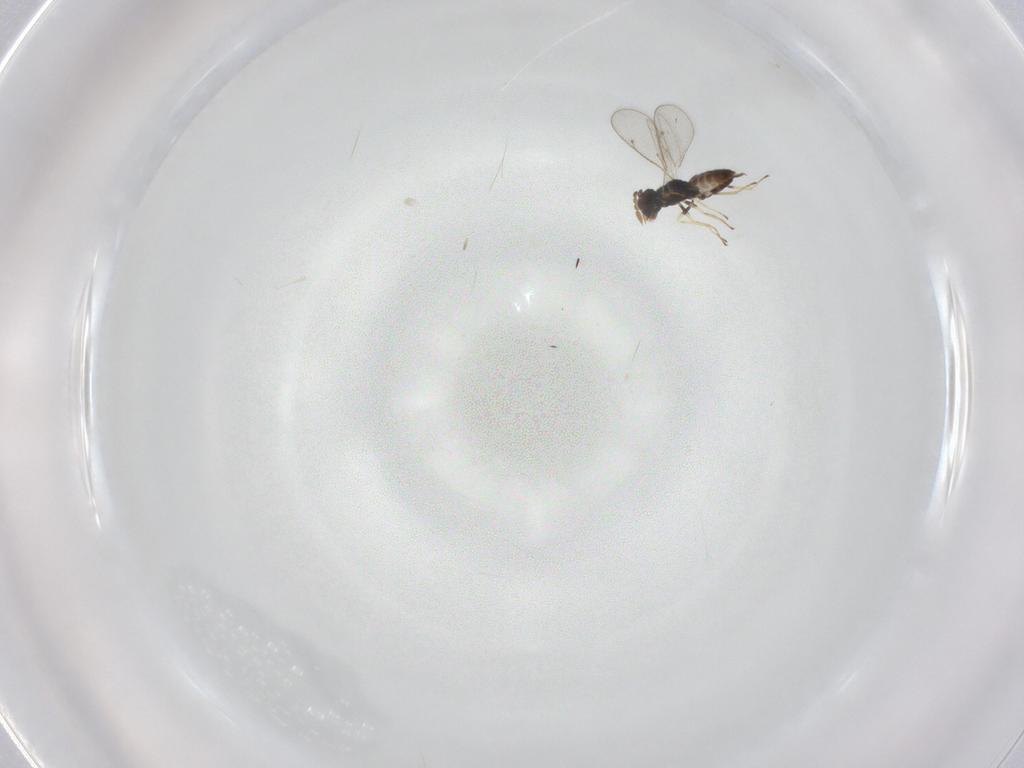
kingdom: Animalia
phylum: Arthropoda
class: Insecta
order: Hymenoptera
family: Eulophidae
